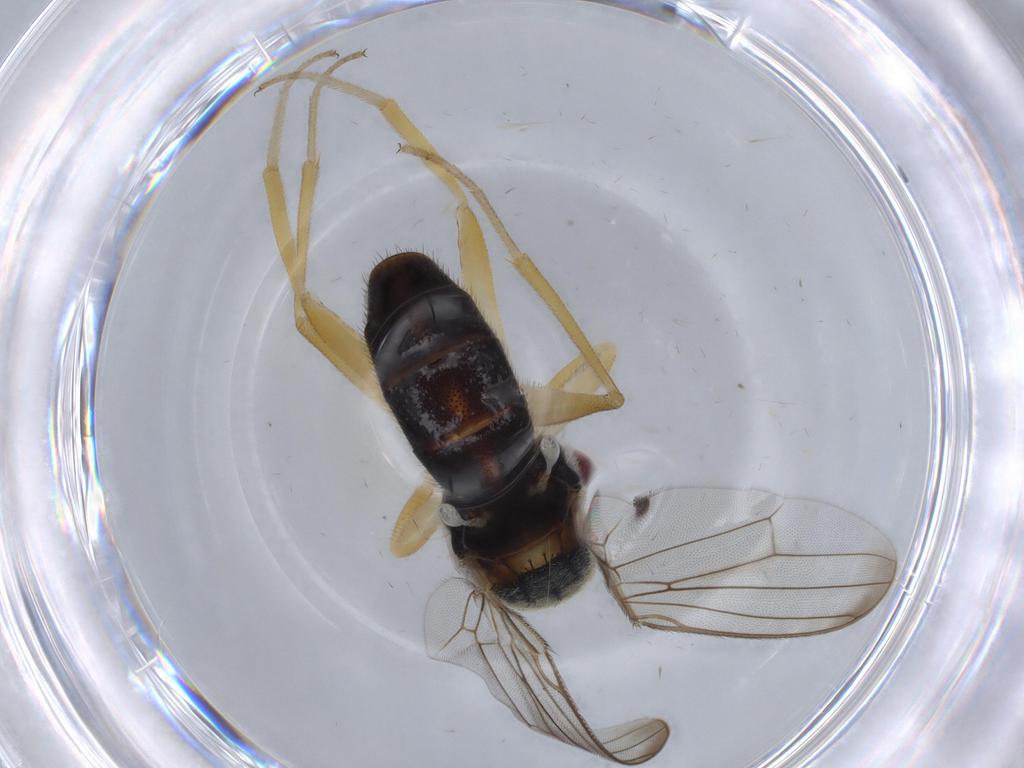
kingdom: Animalia
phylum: Arthropoda
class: Insecta
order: Diptera
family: Psilidae
